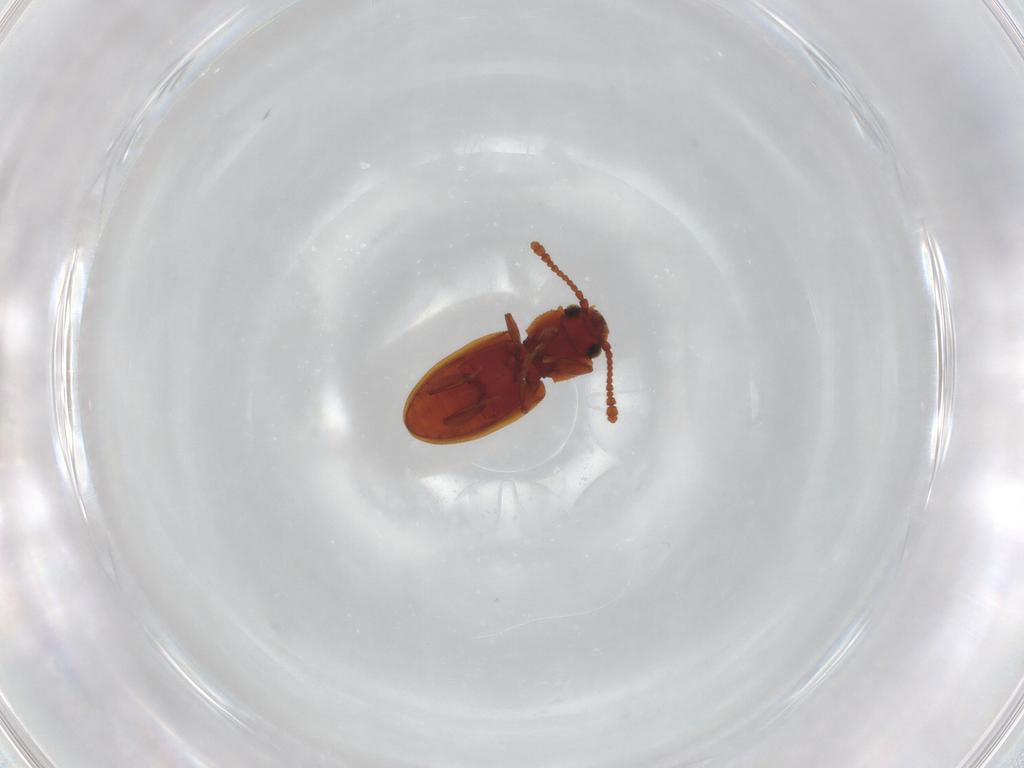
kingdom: Animalia
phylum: Arthropoda
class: Insecta
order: Coleoptera
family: Silvanidae
